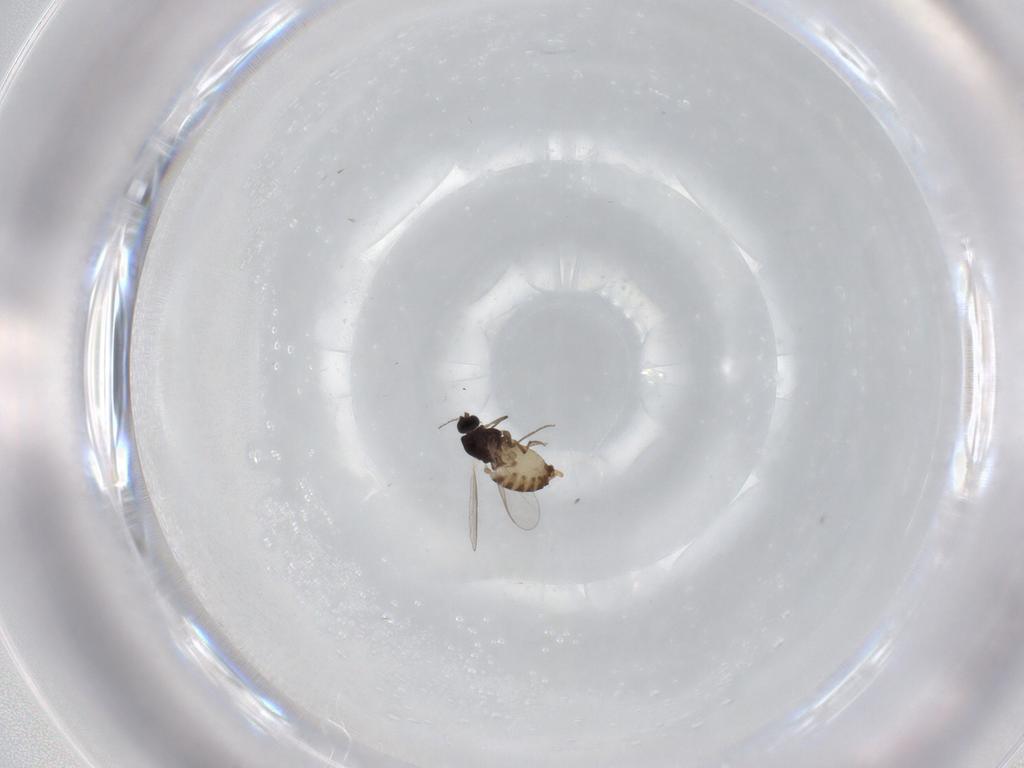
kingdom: Animalia
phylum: Arthropoda
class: Insecta
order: Diptera
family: Chironomidae
